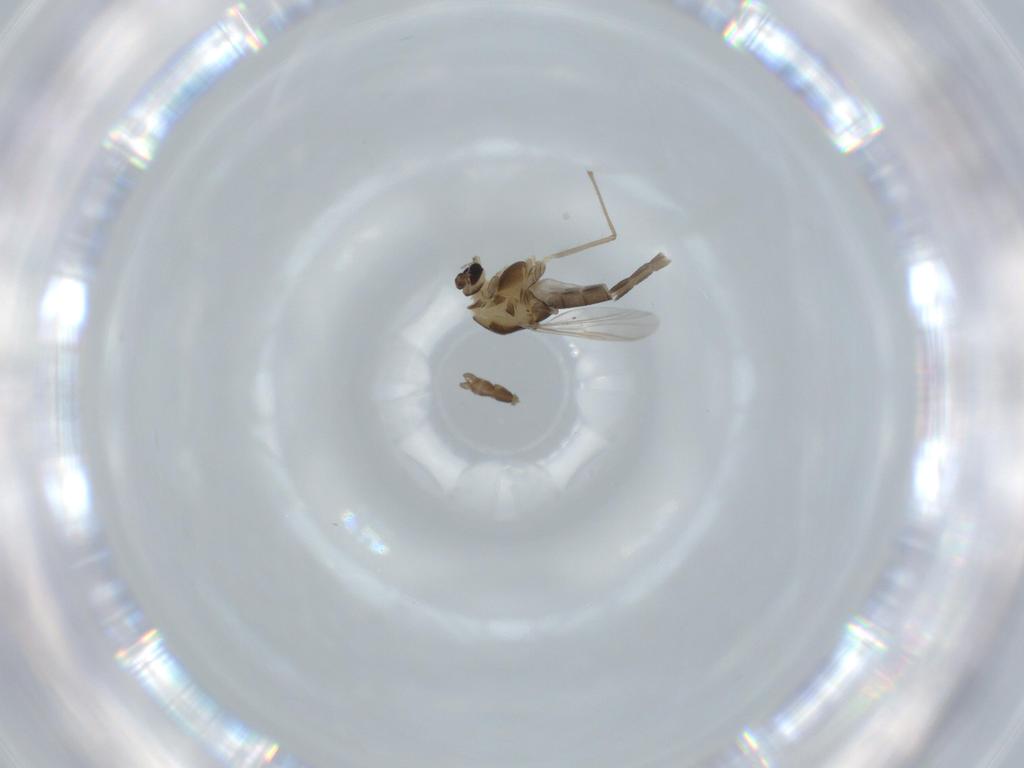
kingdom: Animalia
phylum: Arthropoda
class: Insecta
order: Diptera
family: Chironomidae
